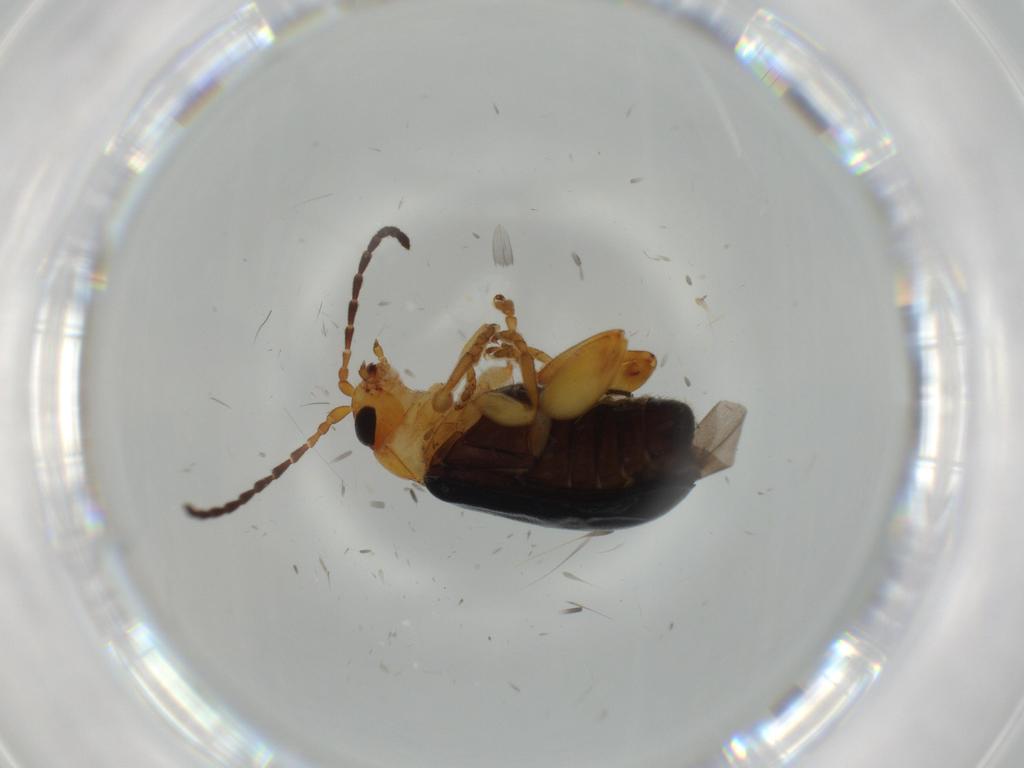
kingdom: Animalia
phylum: Arthropoda
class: Insecta
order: Coleoptera
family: Chrysomelidae
